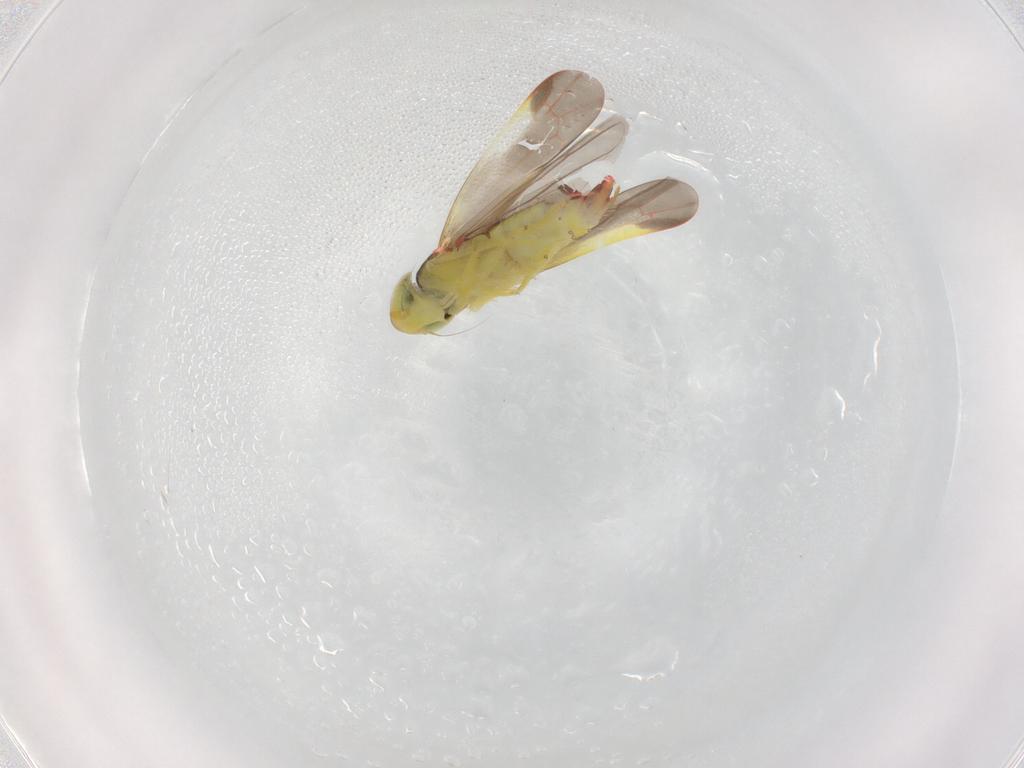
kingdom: Animalia
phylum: Arthropoda
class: Insecta
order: Hemiptera
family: Cicadellidae
